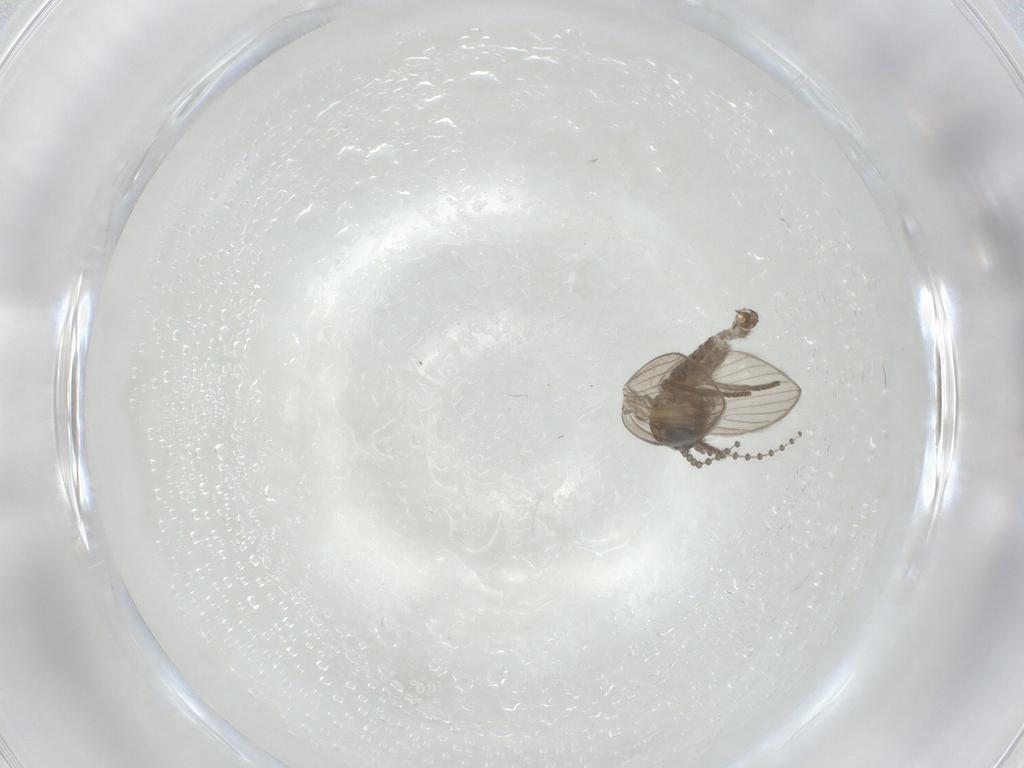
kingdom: Animalia
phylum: Arthropoda
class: Insecta
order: Diptera
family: Psychodidae
